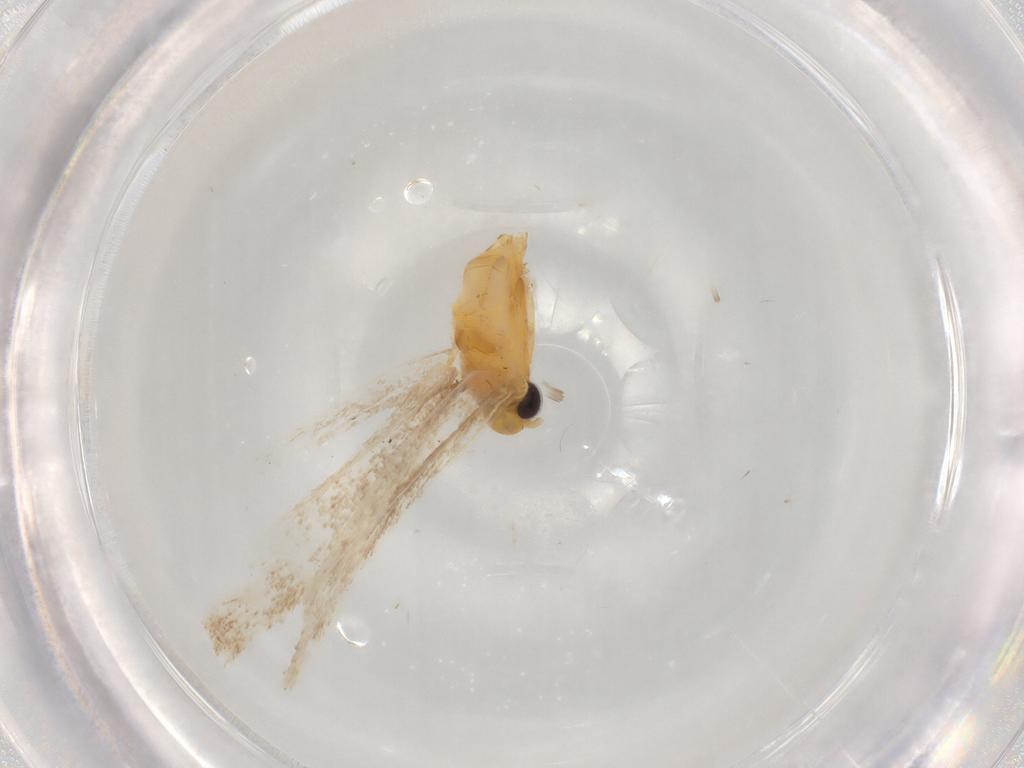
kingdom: Animalia
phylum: Arthropoda
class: Insecta
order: Lepidoptera
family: Gracillariidae
